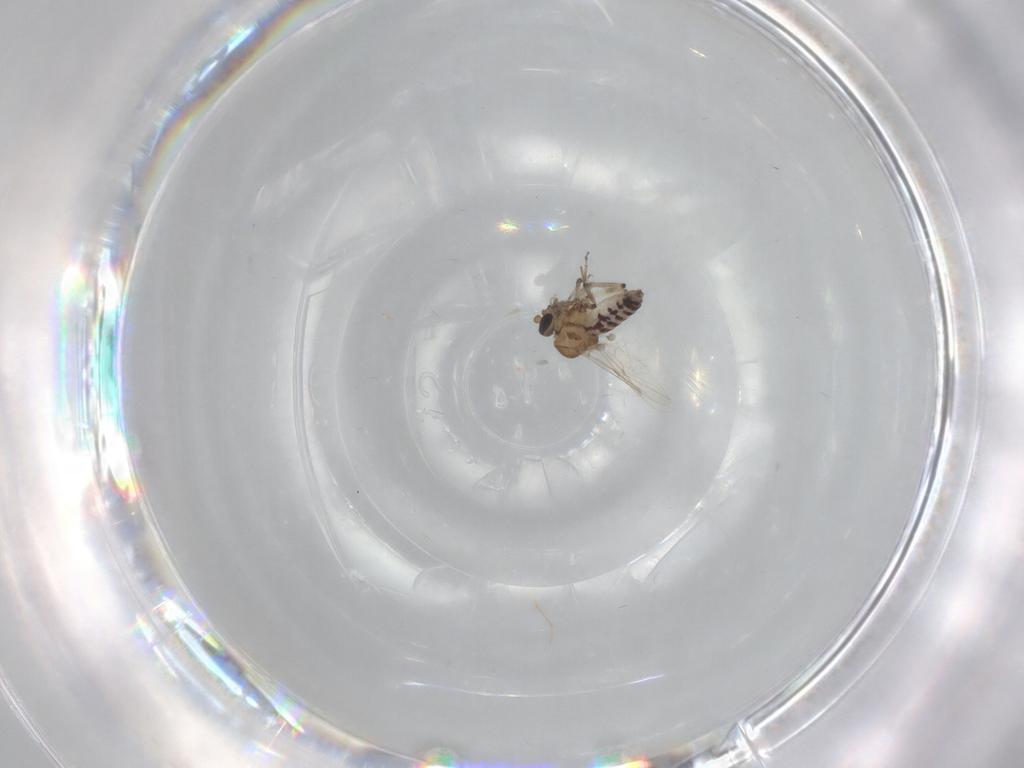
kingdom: Animalia
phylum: Arthropoda
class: Insecta
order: Diptera
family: Ceratopogonidae
